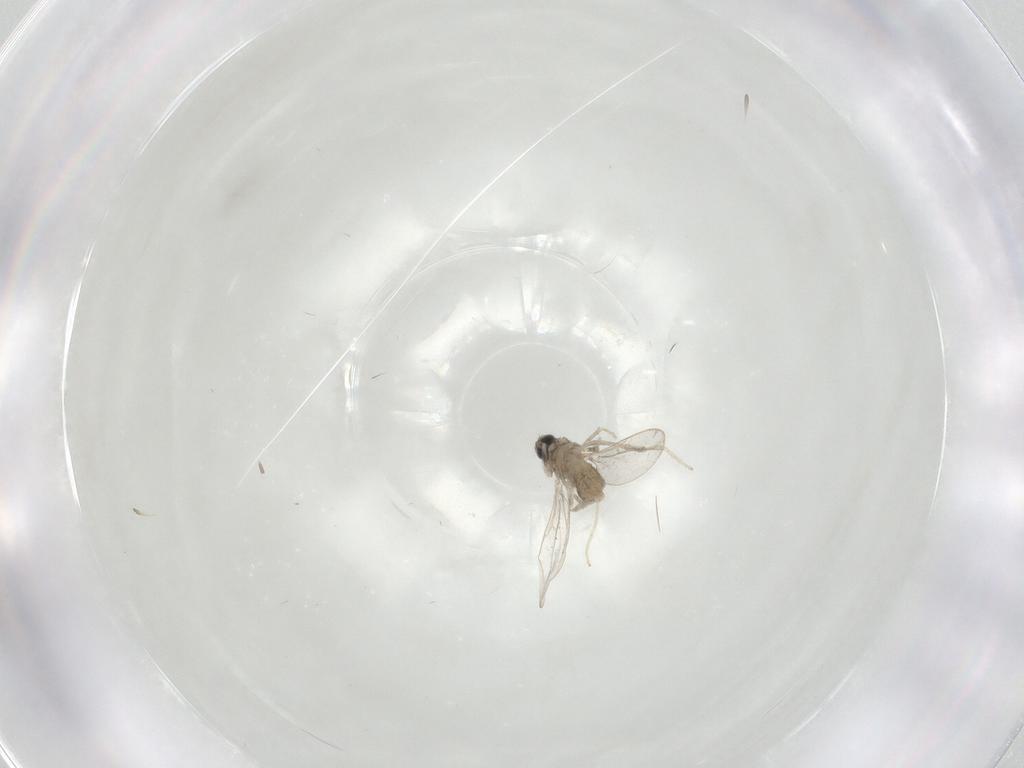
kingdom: Animalia
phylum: Arthropoda
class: Insecta
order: Diptera
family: Cecidomyiidae
